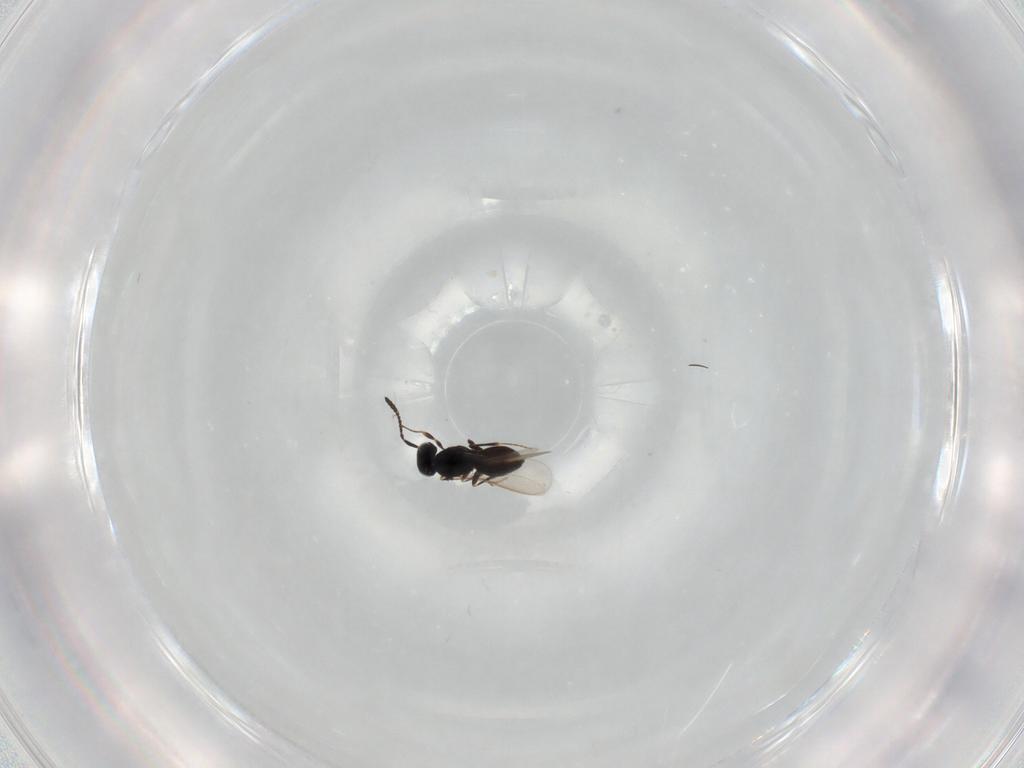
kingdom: Animalia
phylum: Arthropoda
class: Insecta
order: Hymenoptera
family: Scelionidae
